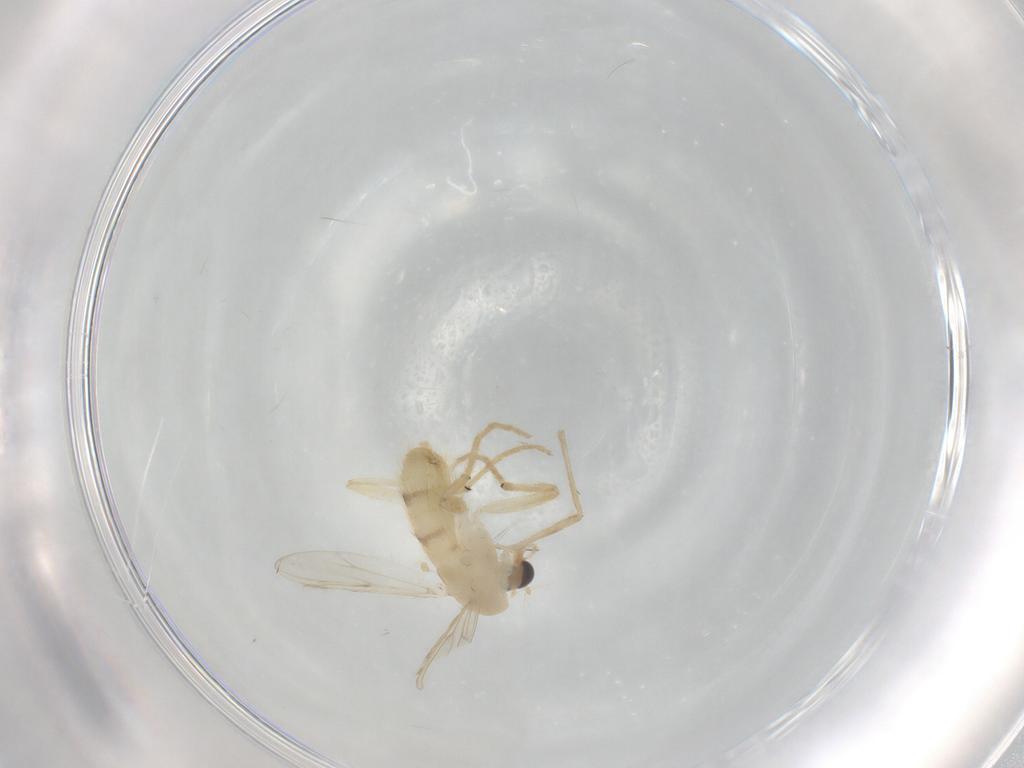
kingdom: Animalia
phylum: Arthropoda
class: Insecta
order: Diptera
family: Chironomidae
